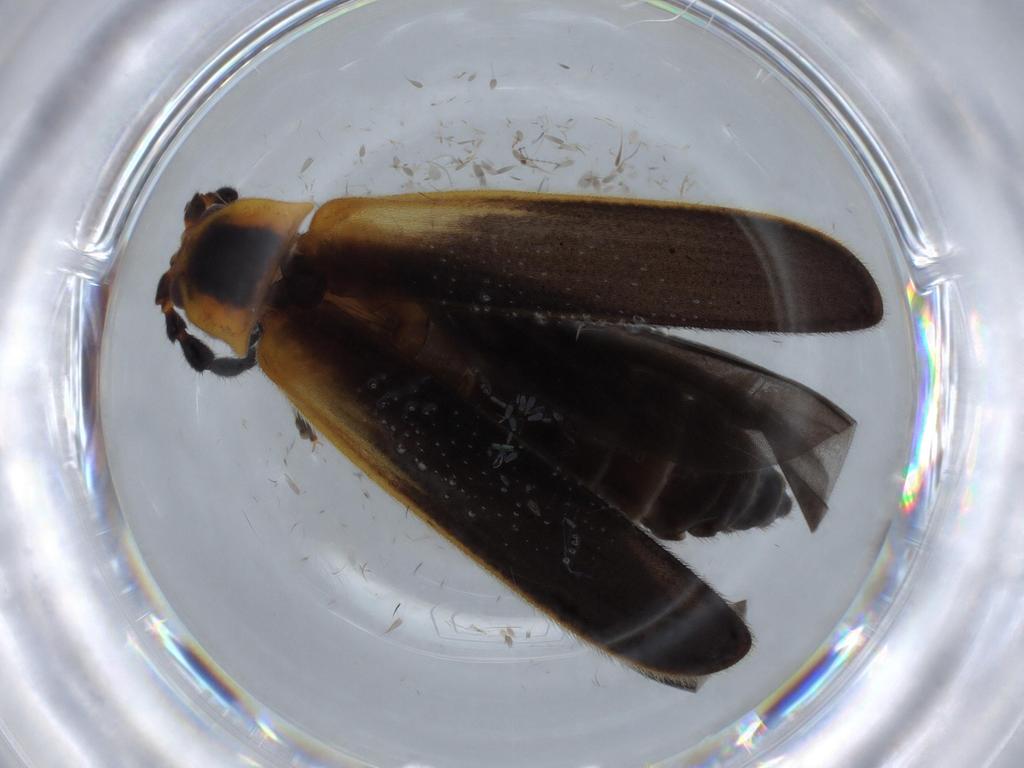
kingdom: Animalia
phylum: Arthropoda
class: Insecta
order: Coleoptera
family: Lycidae
